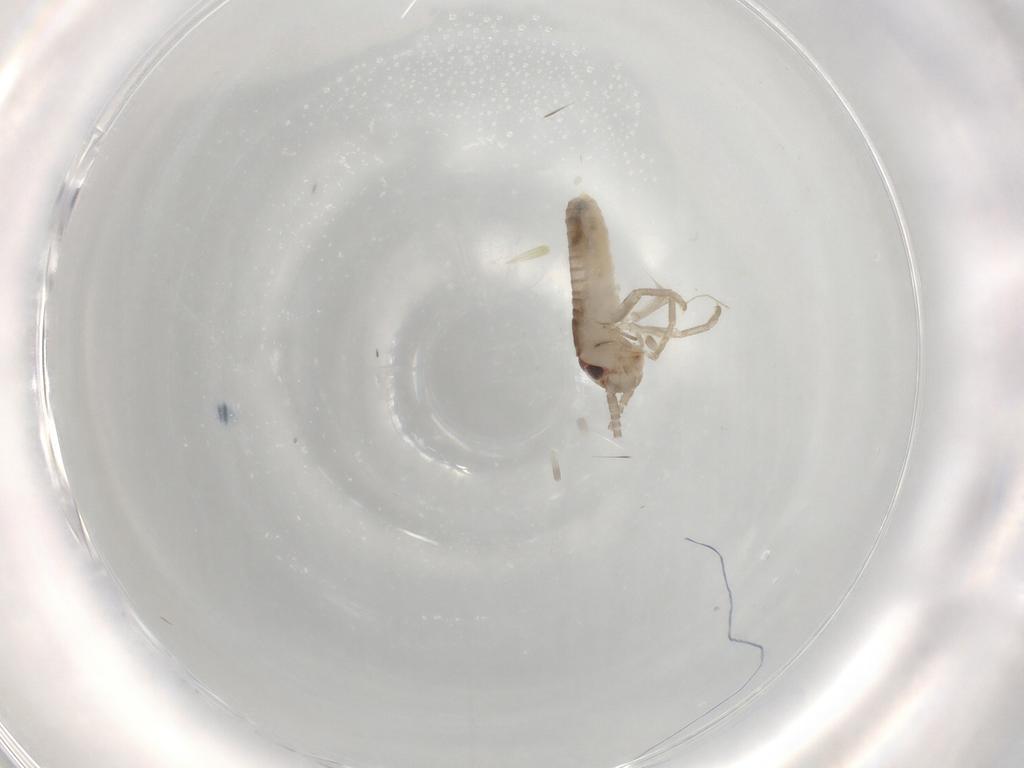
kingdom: Animalia
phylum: Arthropoda
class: Insecta
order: Orthoptera
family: Gryllidae
